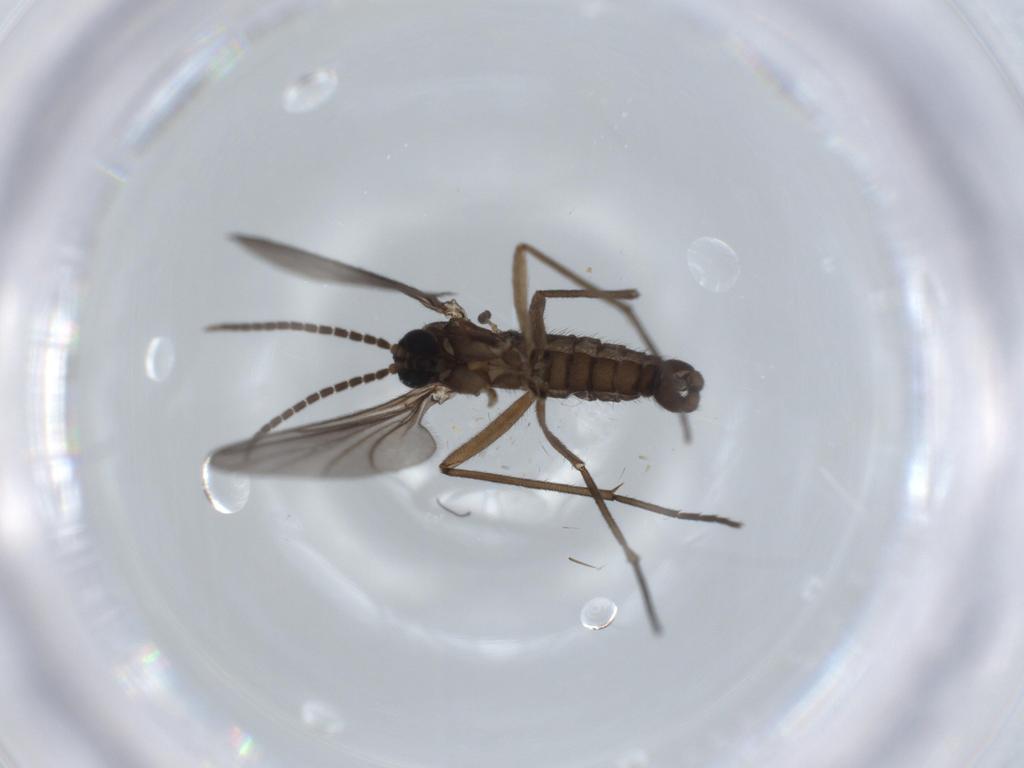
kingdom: Animalia
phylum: Arthropoda
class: Insecta
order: Diptera
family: Sciaridae
